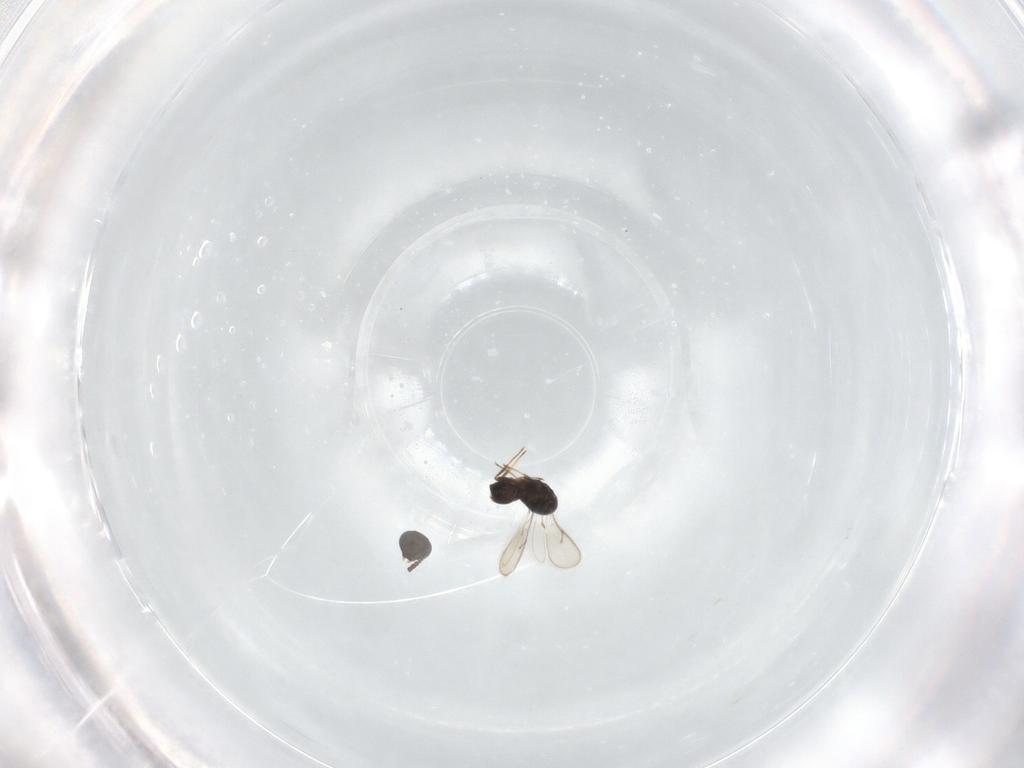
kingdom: Animalia
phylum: Arthropoda
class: Insecta
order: Hymenoptera
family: Scelionidae
